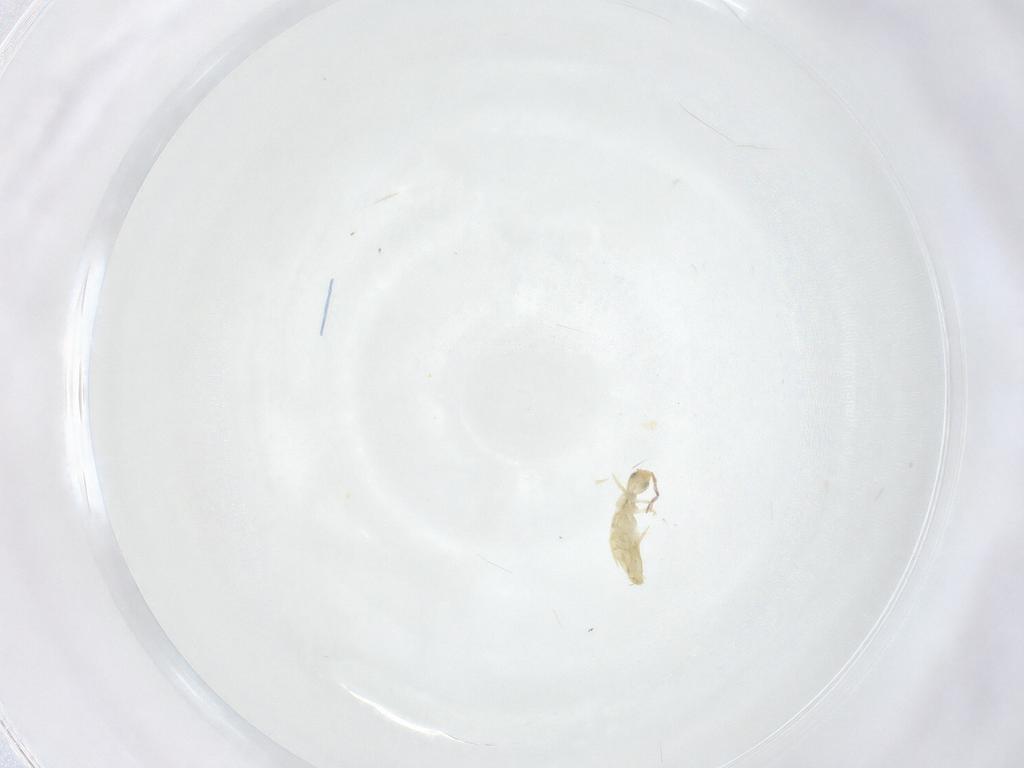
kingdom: Animalia
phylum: Arthropoda
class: Collembola
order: Entomobryomorpha
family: Entomobryidae
